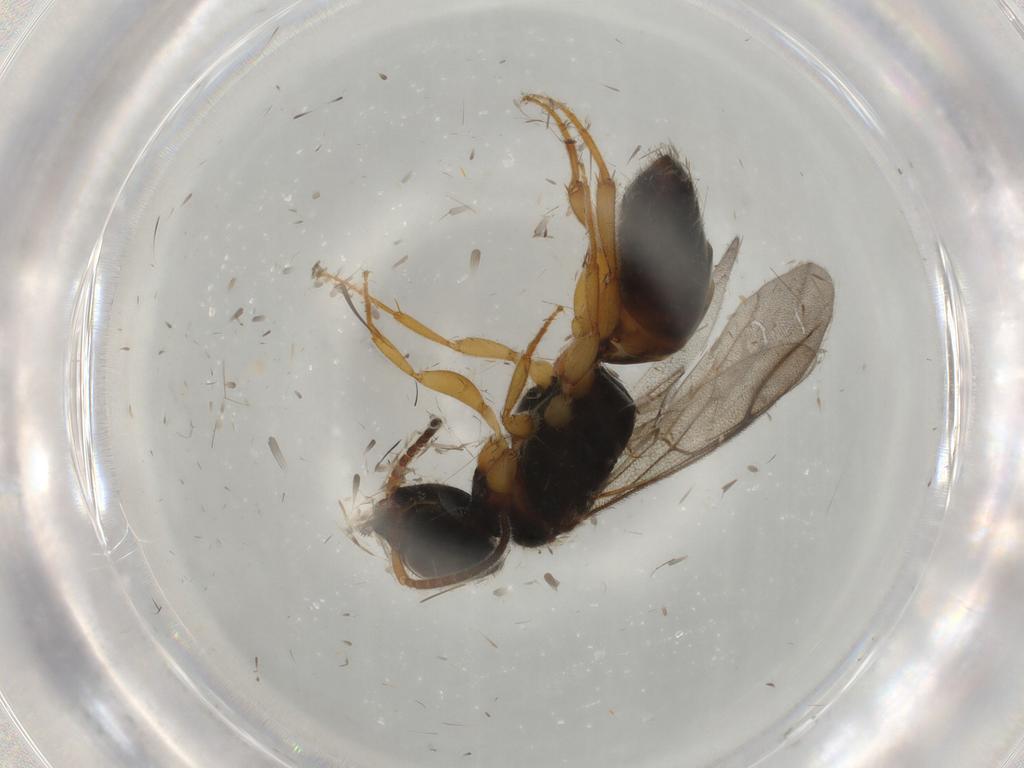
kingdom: Animalia
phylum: Arthropoda
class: Insecta
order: Hymenoptera
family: Bethylidae
